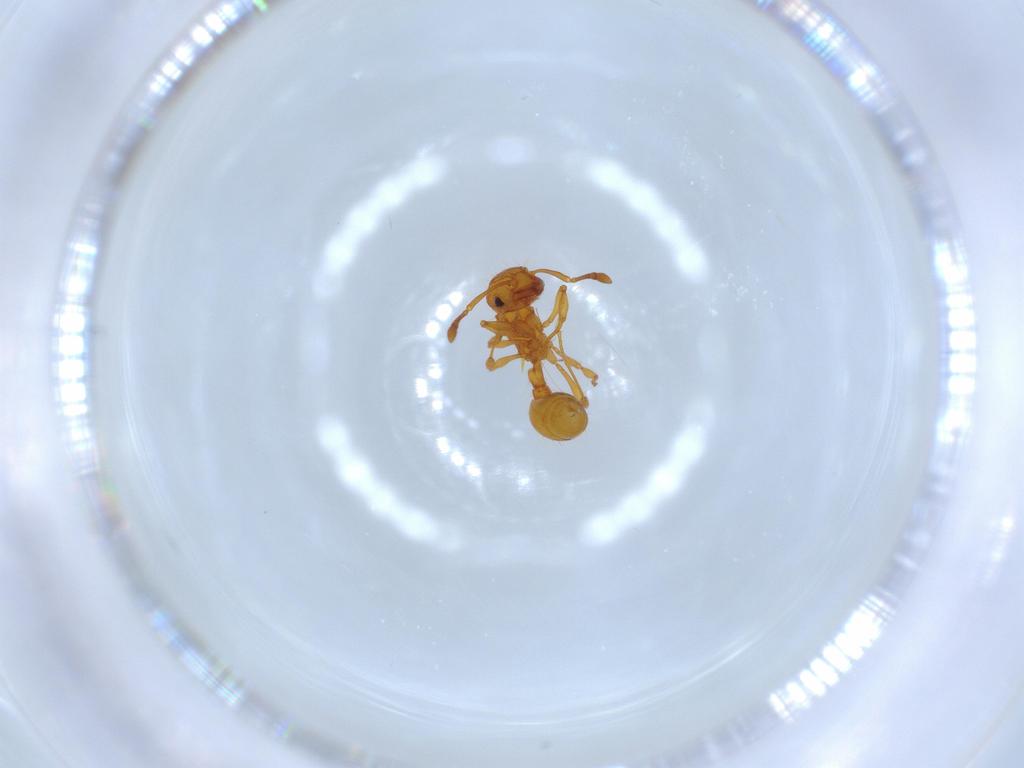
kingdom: Animalia
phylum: Arthropoda
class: Insecta
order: Hymenoptera
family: Formicidae
